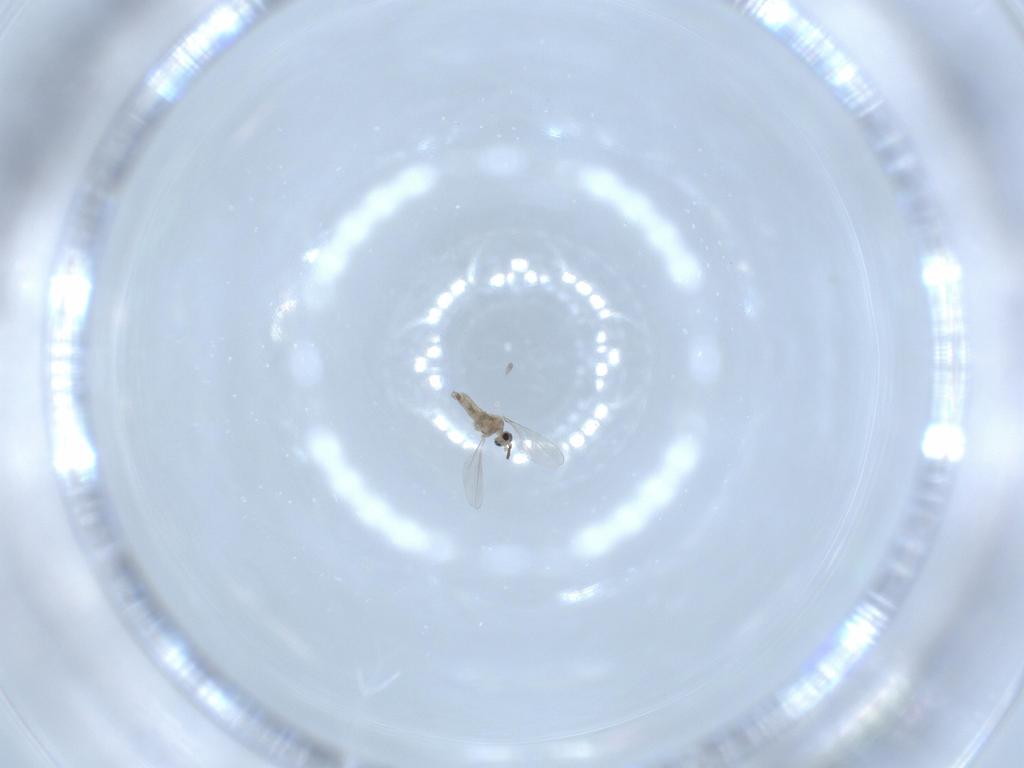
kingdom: Animalia
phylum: Arthropoda
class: Insecta
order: Diptera
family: Cecidomyiidae
